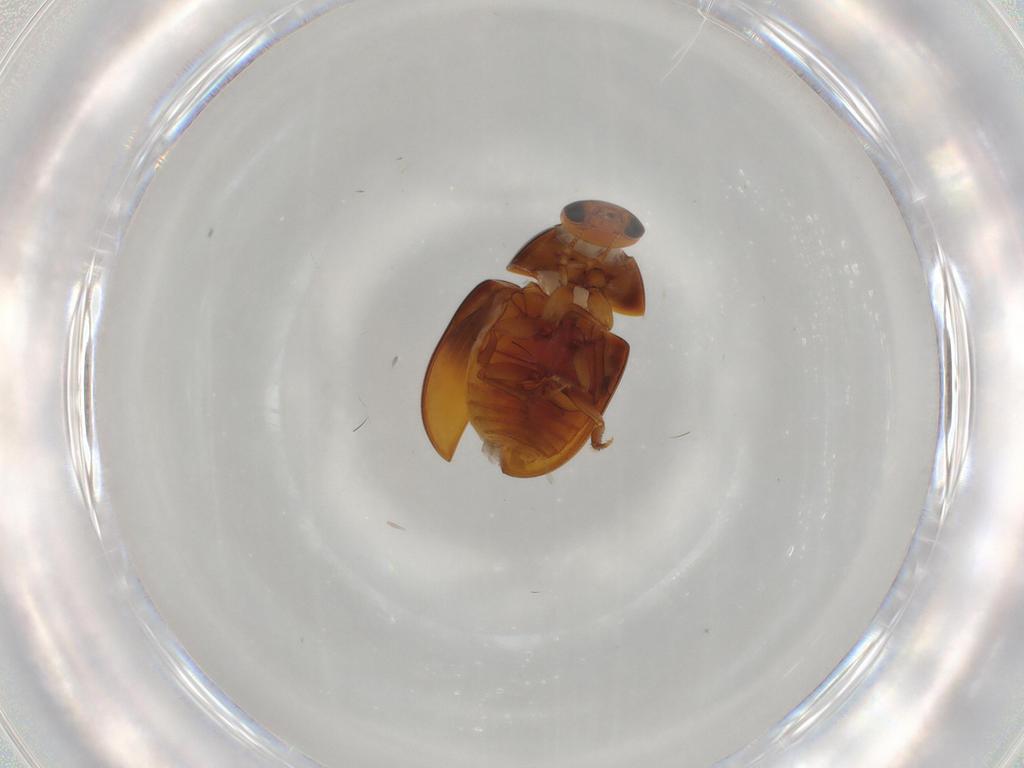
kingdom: Animalia
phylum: Arthropoda
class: Insecta
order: Coleoptera
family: Phalacridae
